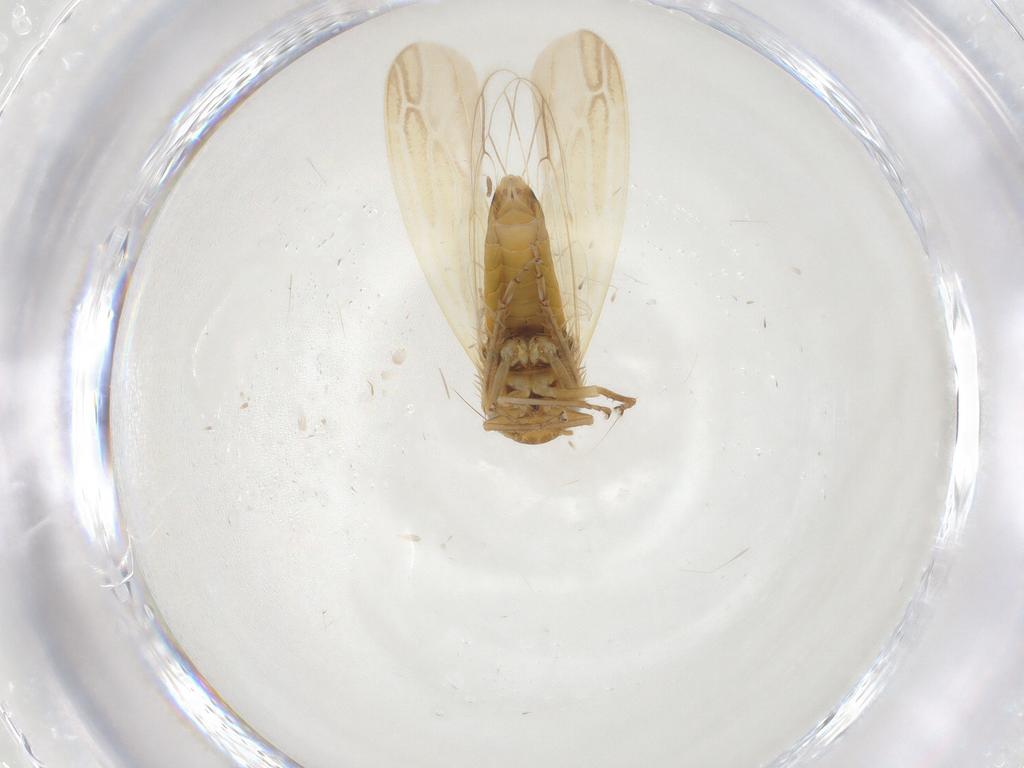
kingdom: Animalia
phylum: Arthropoda
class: Insecta
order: Hemiptera
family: Cicadellidae
